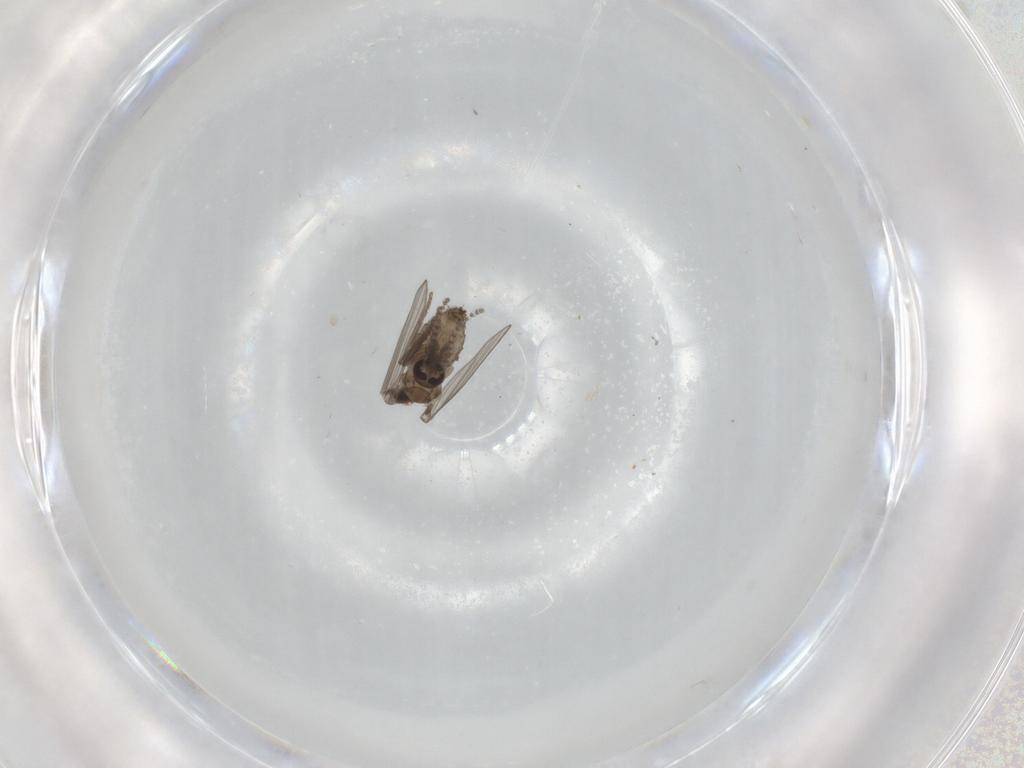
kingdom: Animalia
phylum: Arthropoda
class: Insecta
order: Diptera
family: Psychodidae
